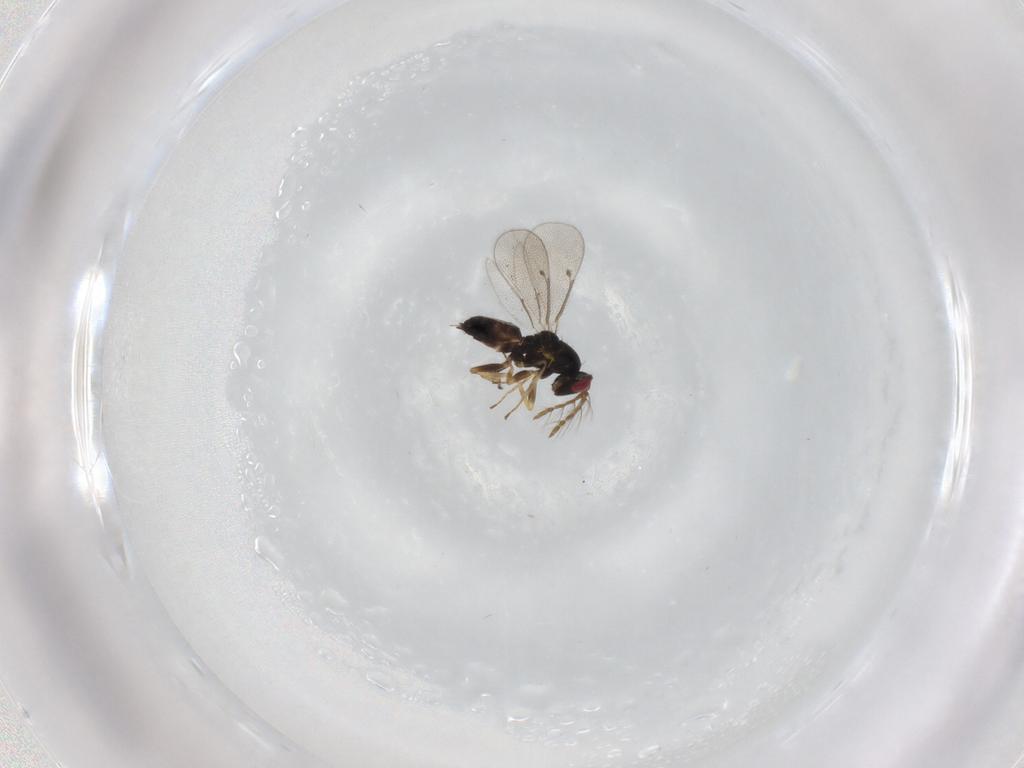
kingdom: Animalia
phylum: Arthropoda
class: Insecta
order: Hymenoptera
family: Eulophidae
